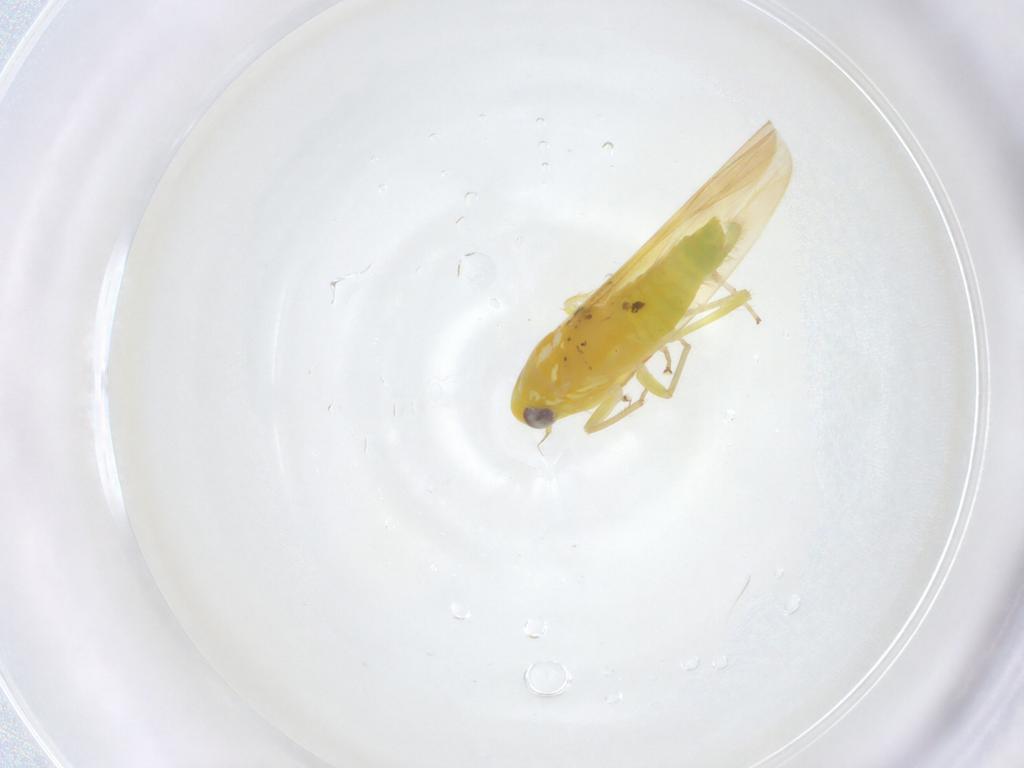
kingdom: Animalia
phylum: Arthropoda
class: Insecta
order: Hemiptera
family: Cicadellidae
